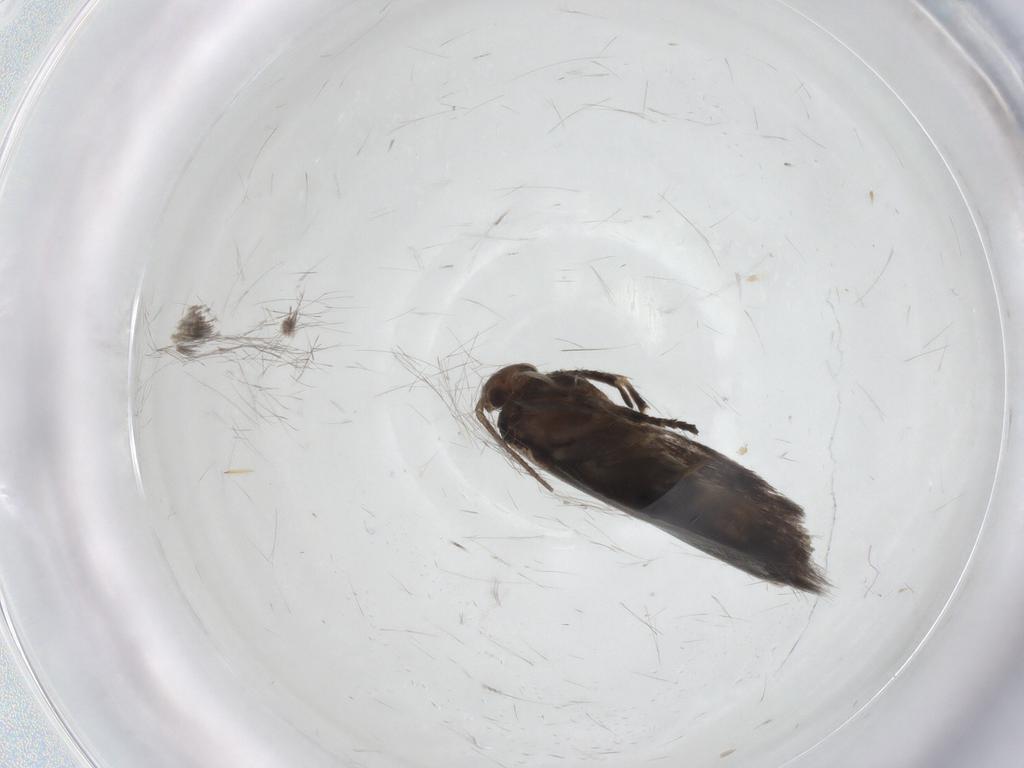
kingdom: Animalia
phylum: Arthropoda
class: Insecta
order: Lepidoptera
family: Elachistidae
